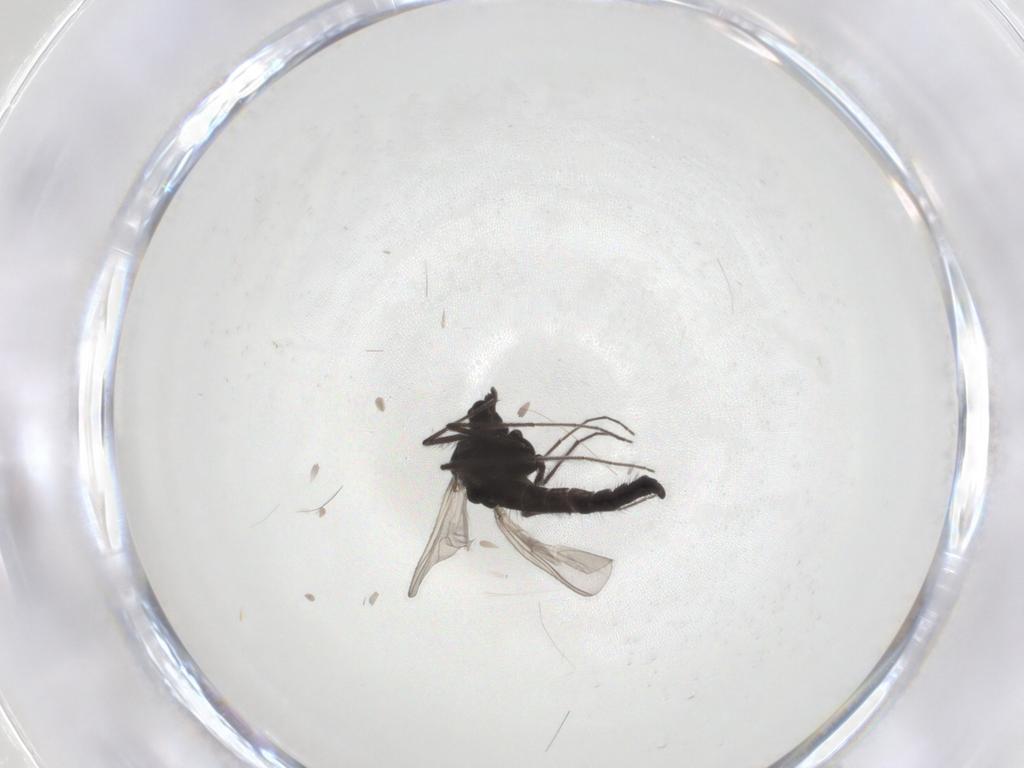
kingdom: Animalia
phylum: Arthropoda
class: Insecta
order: Diptera
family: Chironomidae
